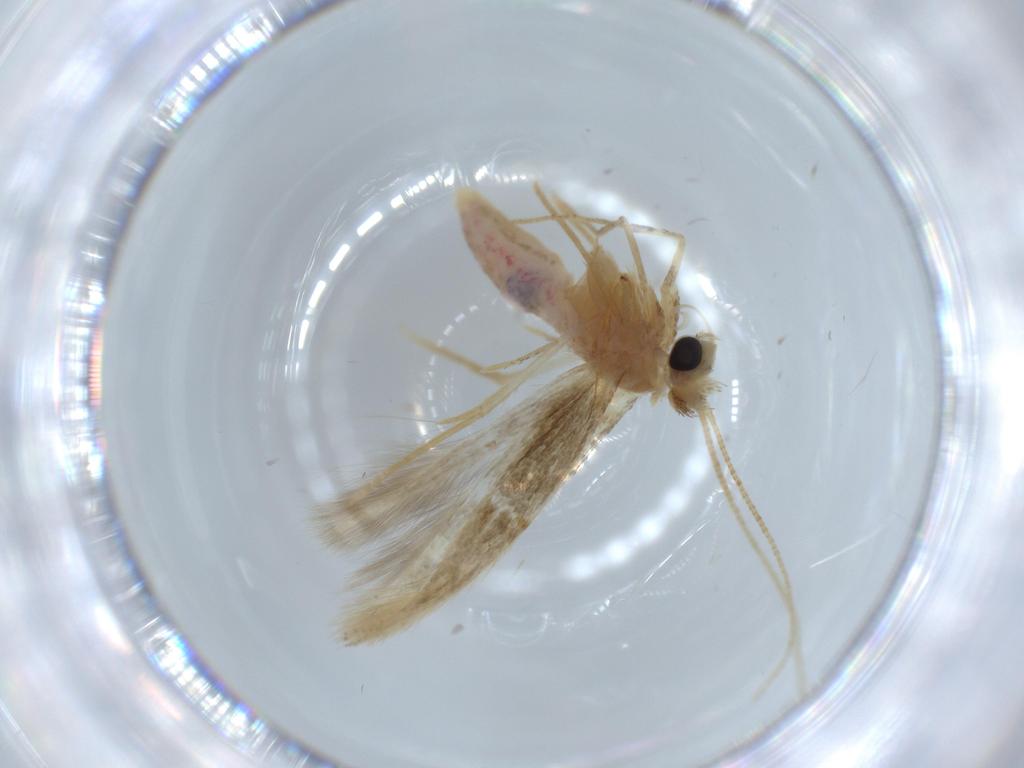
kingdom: Animalia
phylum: Arthropoda
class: Insecta
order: Lepidoptera
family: Bedelliidae
